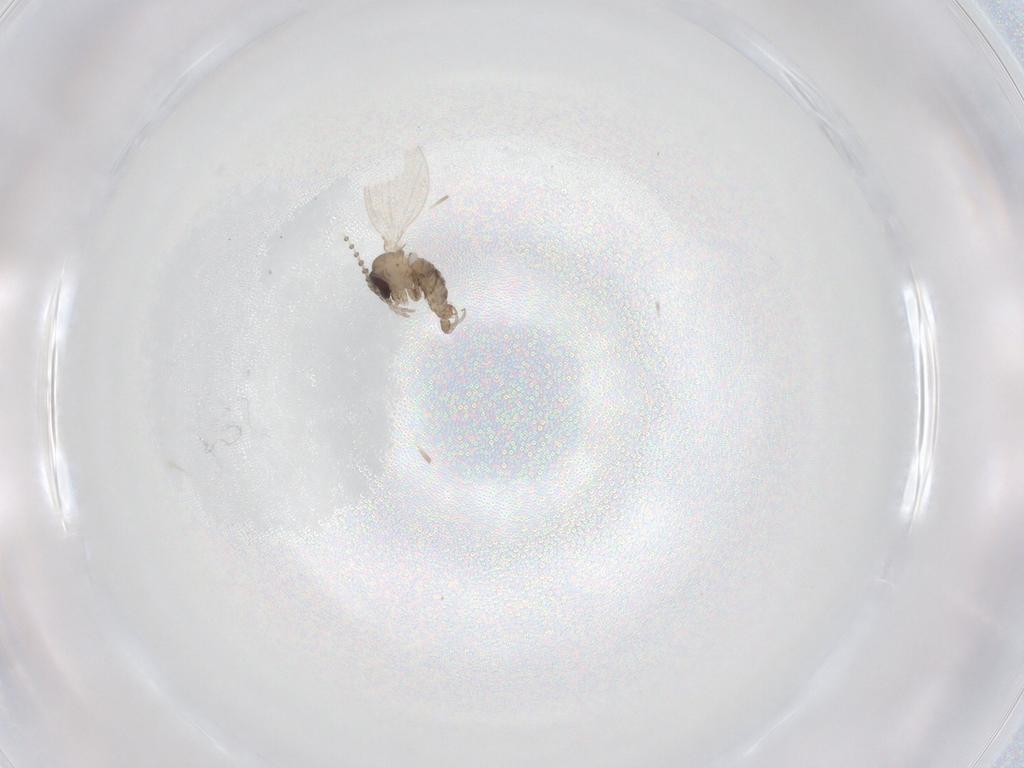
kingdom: Animalia
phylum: Arthropoda
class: Insecta
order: Diptera
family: Psychodidae
